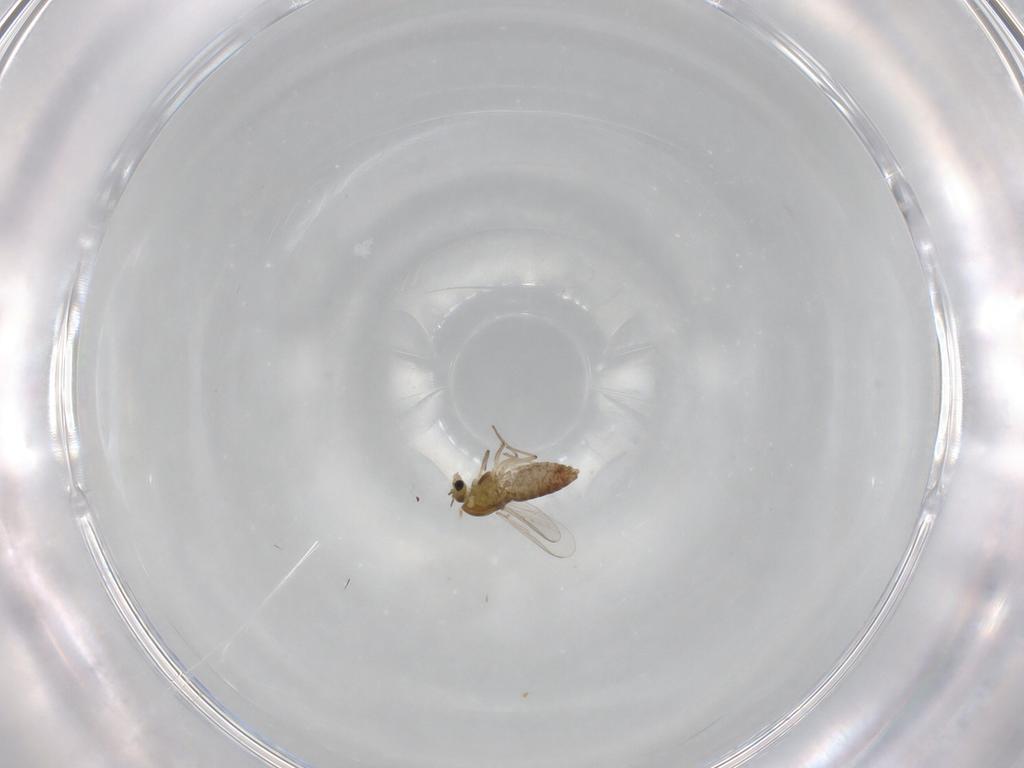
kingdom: Animalia
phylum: Arthropoda
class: Insecta
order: Diptera
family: Chironomidae
